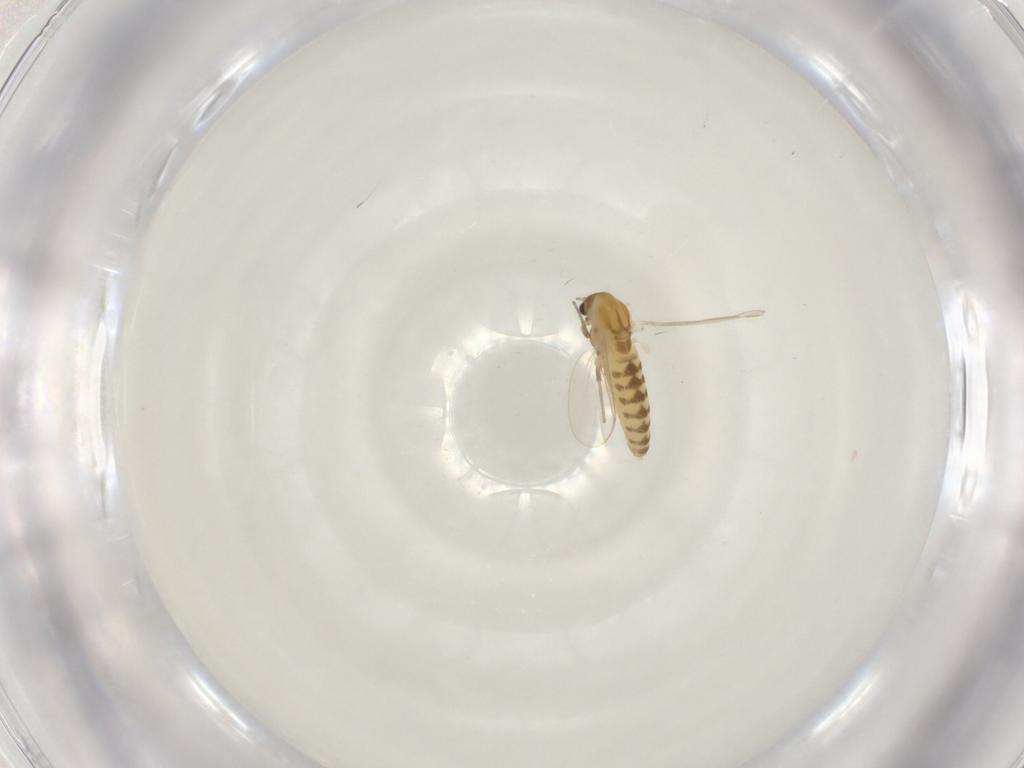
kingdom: Animalia
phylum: Arthropoda
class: Insecta
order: Diptera
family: Chironomidae
